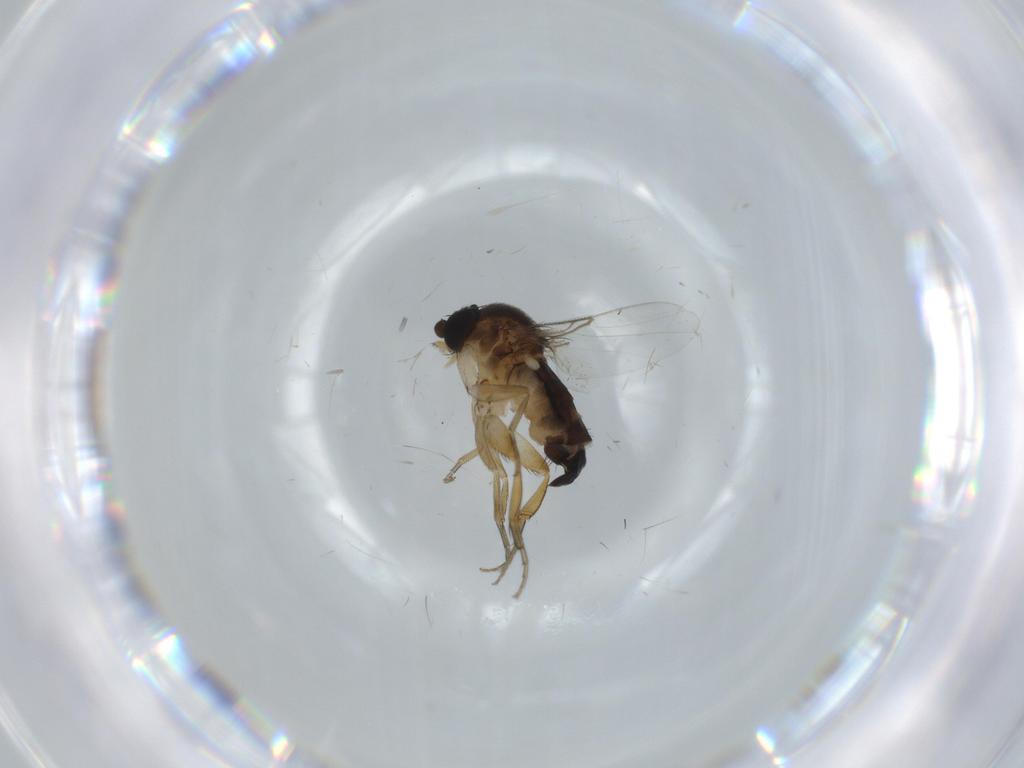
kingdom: Animalia
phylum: Arthropoda
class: Insecta
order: Diptera
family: Phoridae
